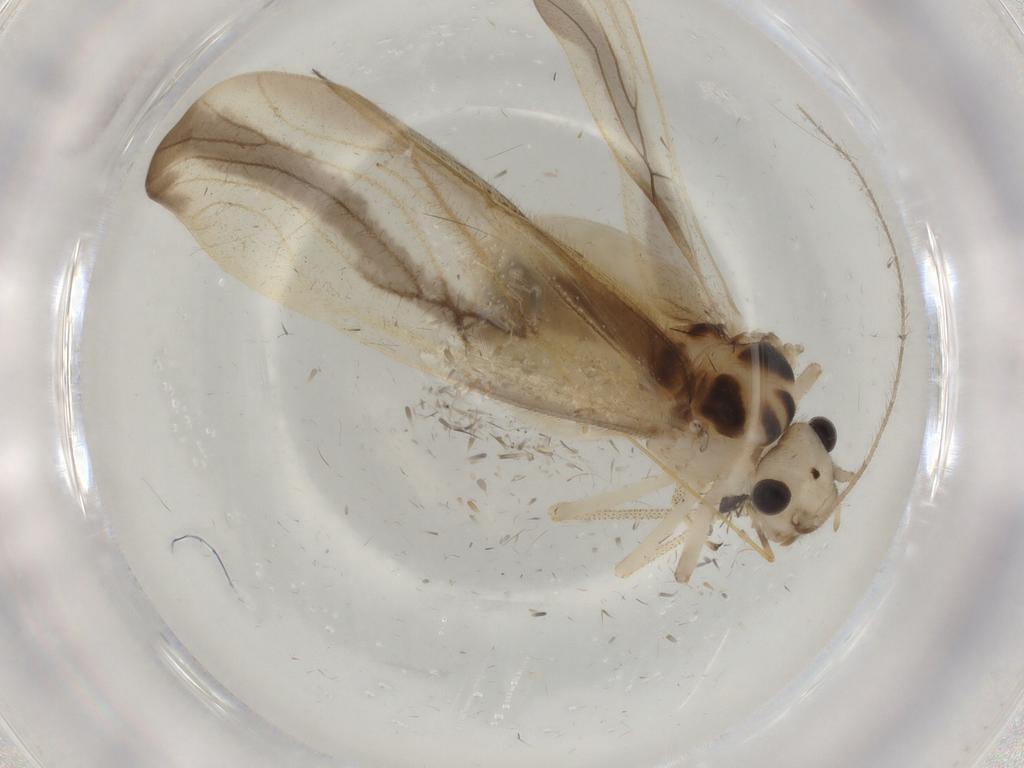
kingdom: Animalia
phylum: Arthropoda
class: Insecta
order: Psocodea
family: Amphipsocidae
